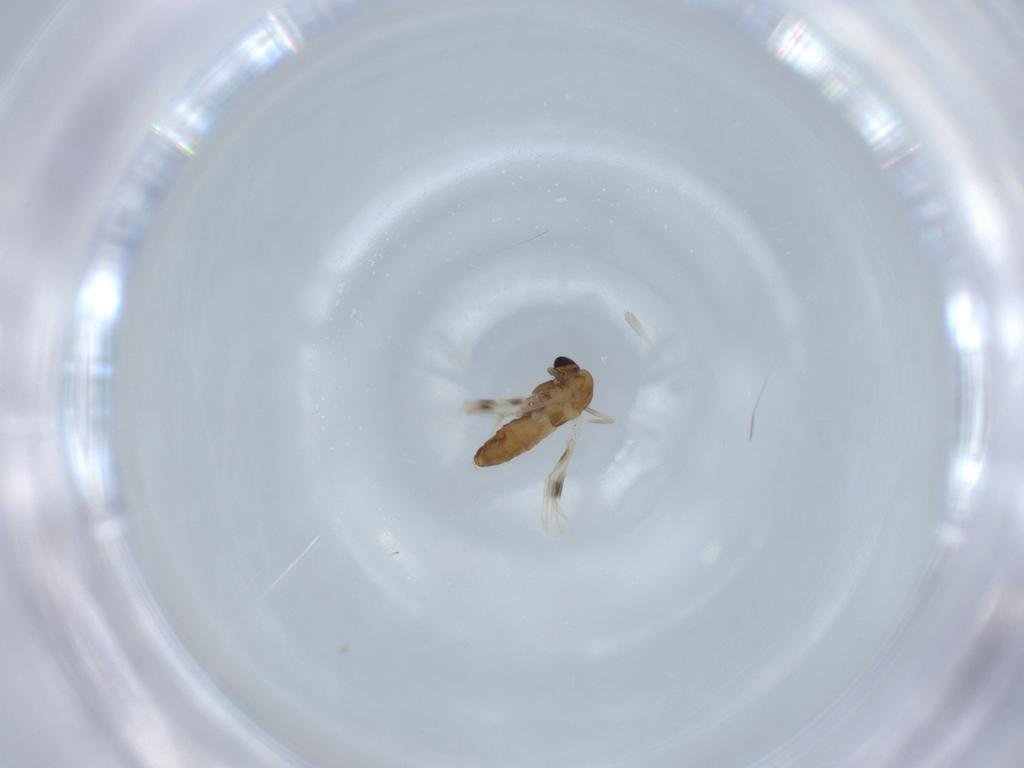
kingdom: Animalia
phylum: Arthropoda
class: Insecta
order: Diptera
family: Chironomidae
